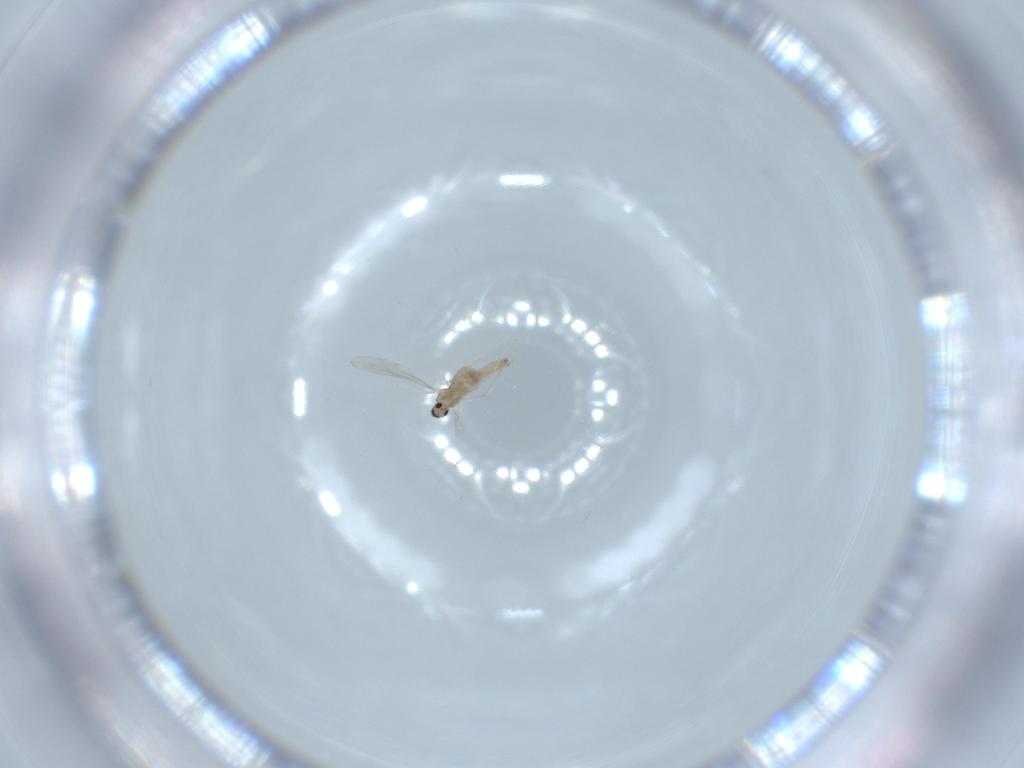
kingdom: Animalia
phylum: Arthropoda
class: Insecta
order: Diptera
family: Cecidomyiidae
